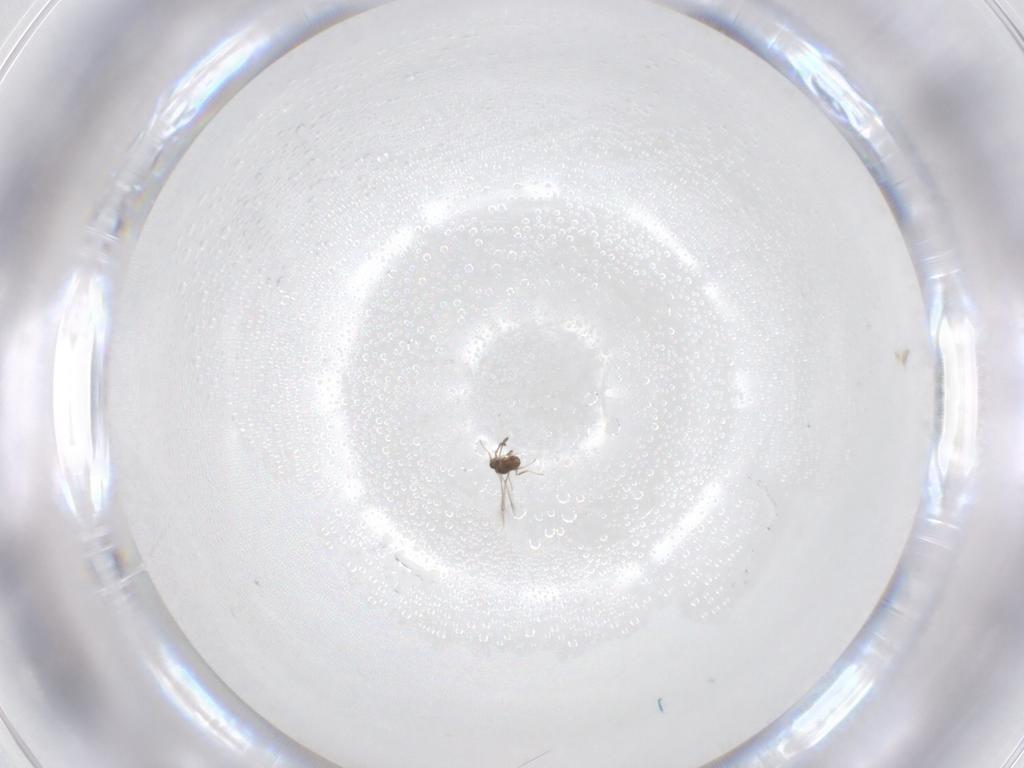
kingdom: Animalia
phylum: Arthropoda
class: Insecta
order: Hymenoptera
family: Mymaridae
